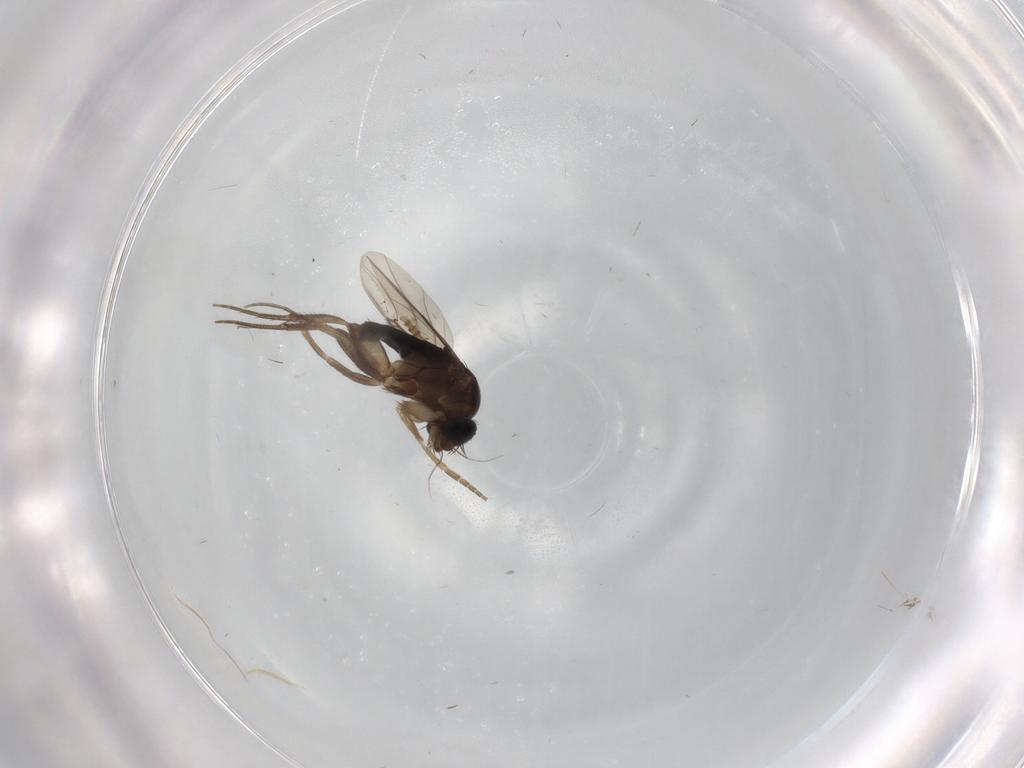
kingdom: Animalia
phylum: Arthropoda
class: Insecta
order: Diptera
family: Phoridae
